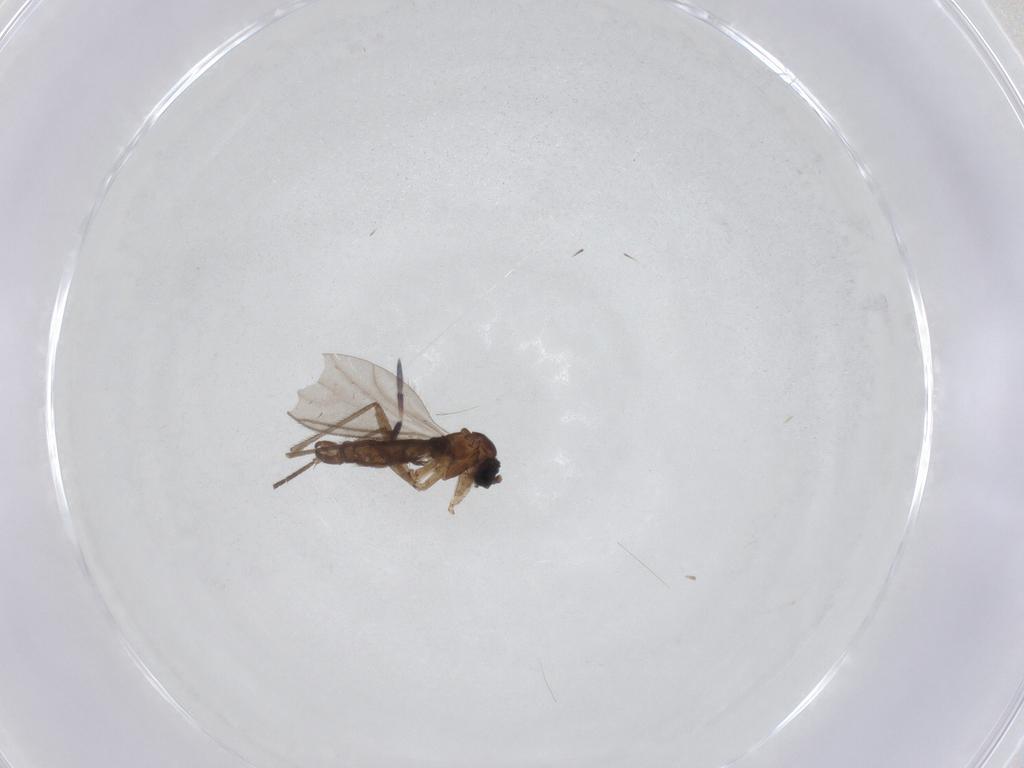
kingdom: Animalia
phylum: Arthropoda
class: Insecta
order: Diptera
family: Sciaridae
